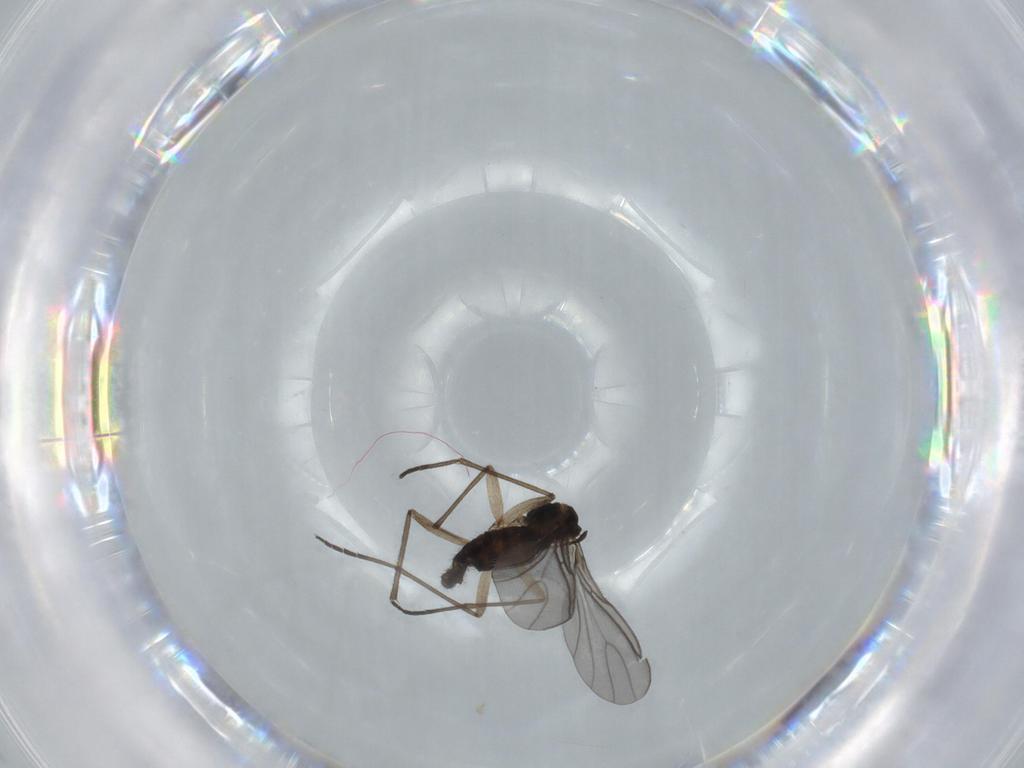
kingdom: Animalia
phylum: Arthropoda
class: Insecta
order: Diptera
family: Sciaridae
